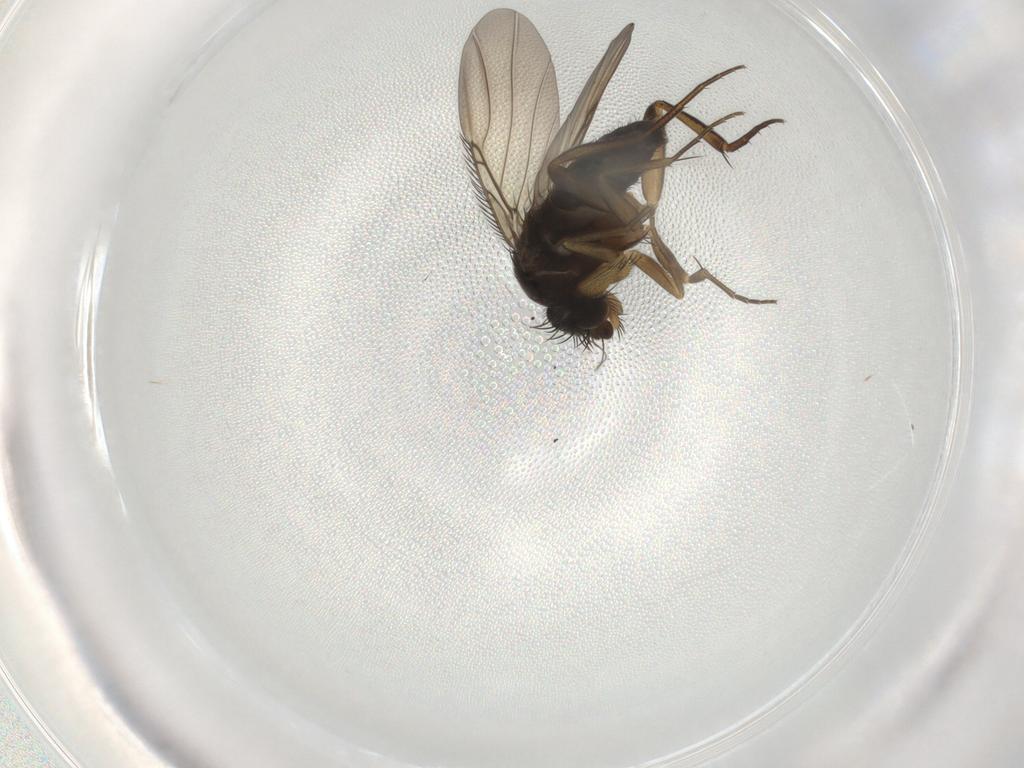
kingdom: Animalia
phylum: Arthropoda
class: Insecta
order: Diptera
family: Phoridae
